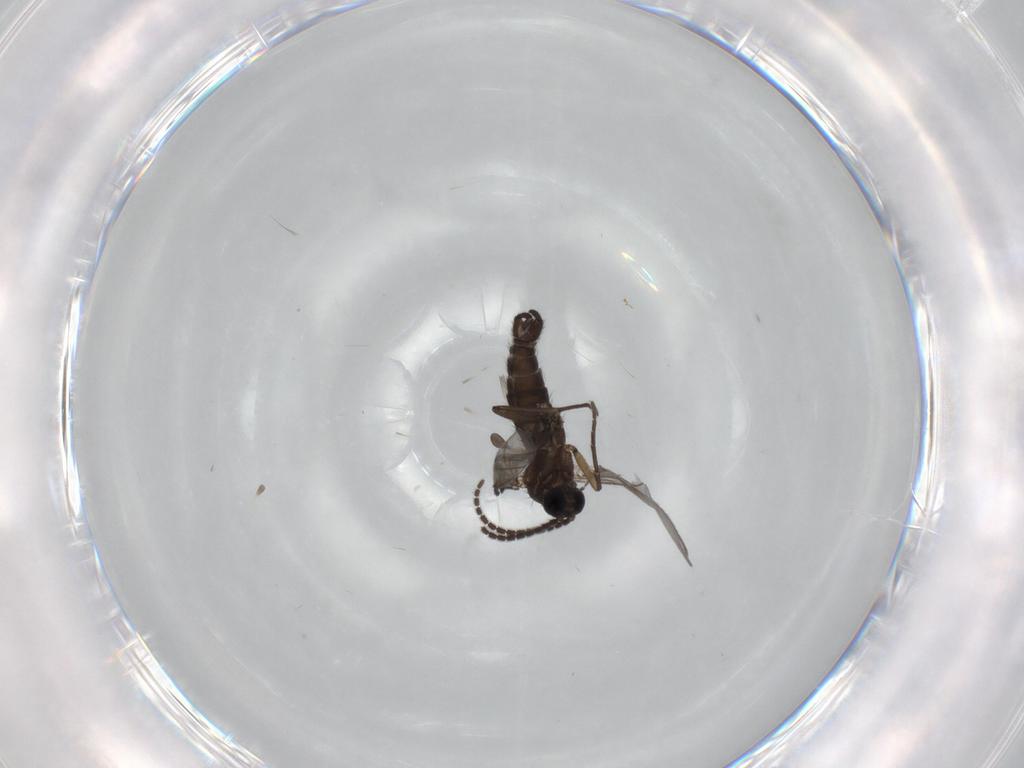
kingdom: Animalia
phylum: Arthropoda
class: Insecta
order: Diptera
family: Sciaridae
